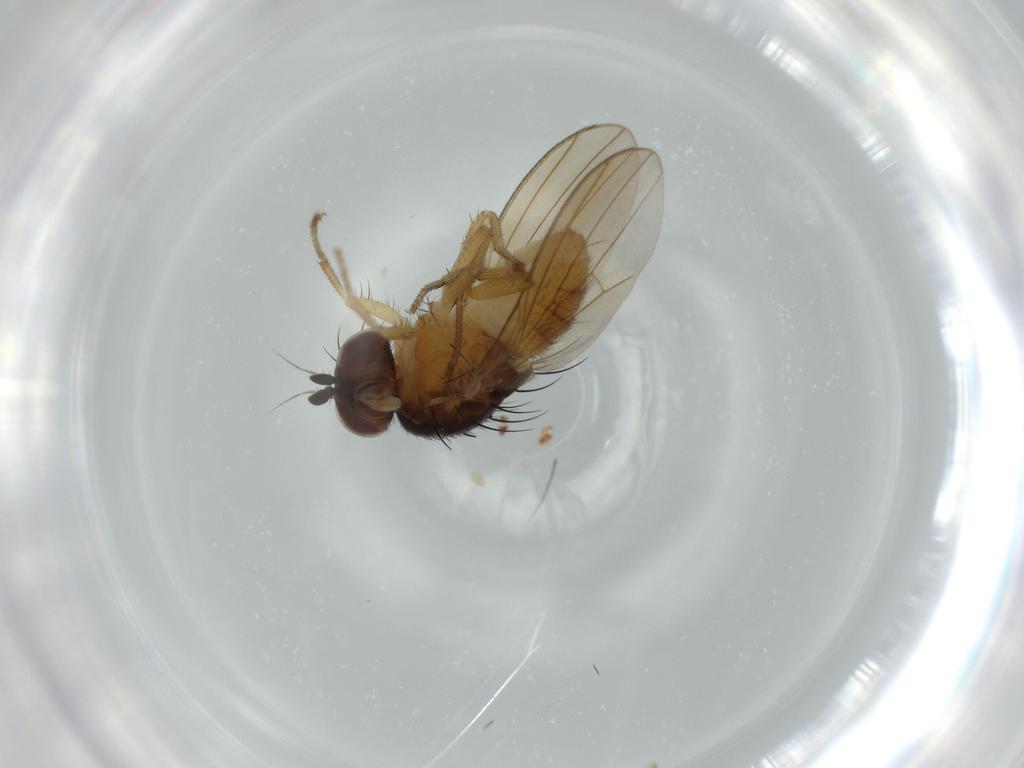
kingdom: Animalia
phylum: Arthropoda
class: Insecta
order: Diptera
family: Lauxaniidae
